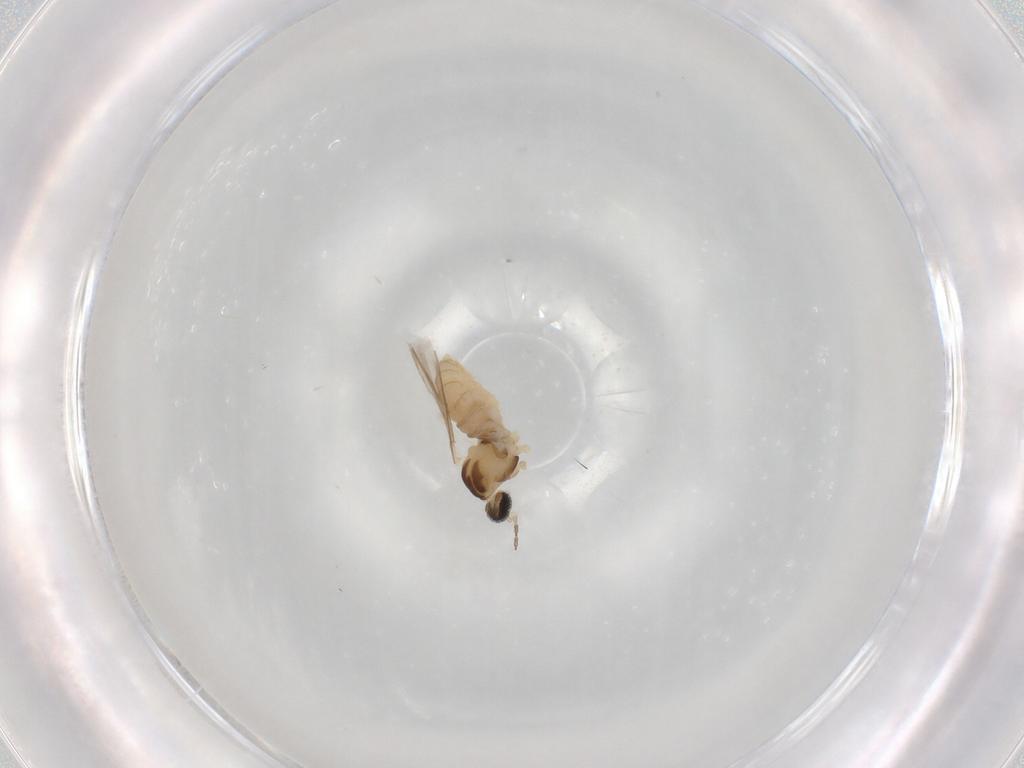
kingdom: Animalia
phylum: Arthropoda
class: Insecta
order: Diptera
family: Cecidomyiidae
